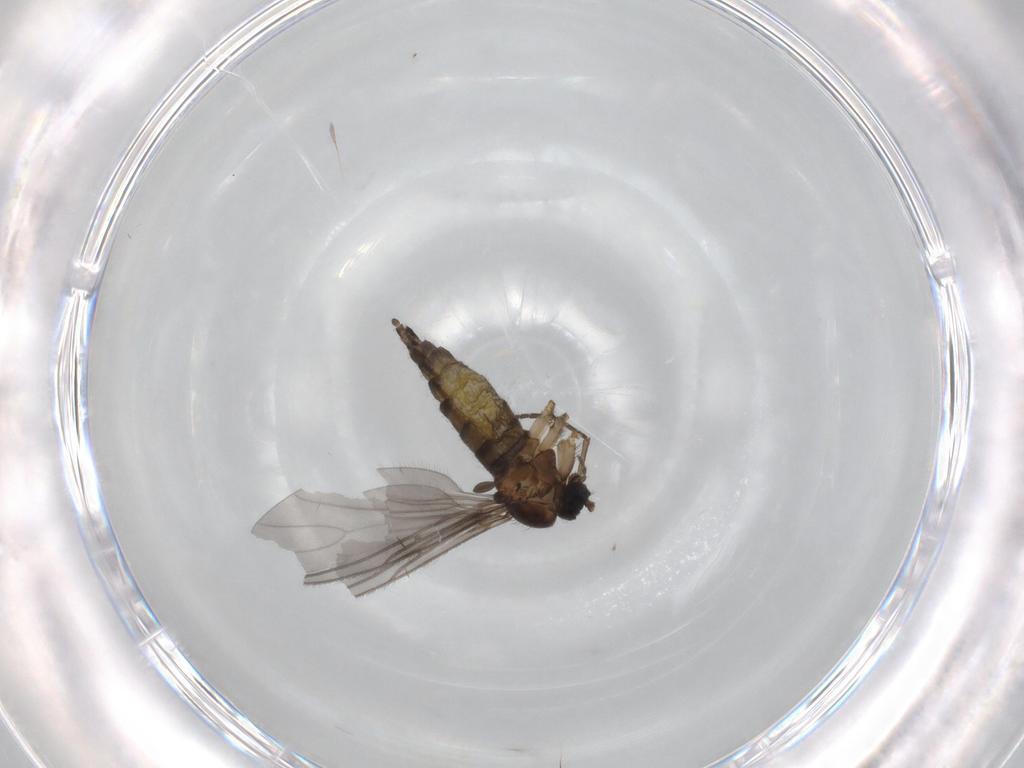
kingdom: Animalia
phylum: Arthropoda
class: Insecta
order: Diptera
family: Sciaridae
